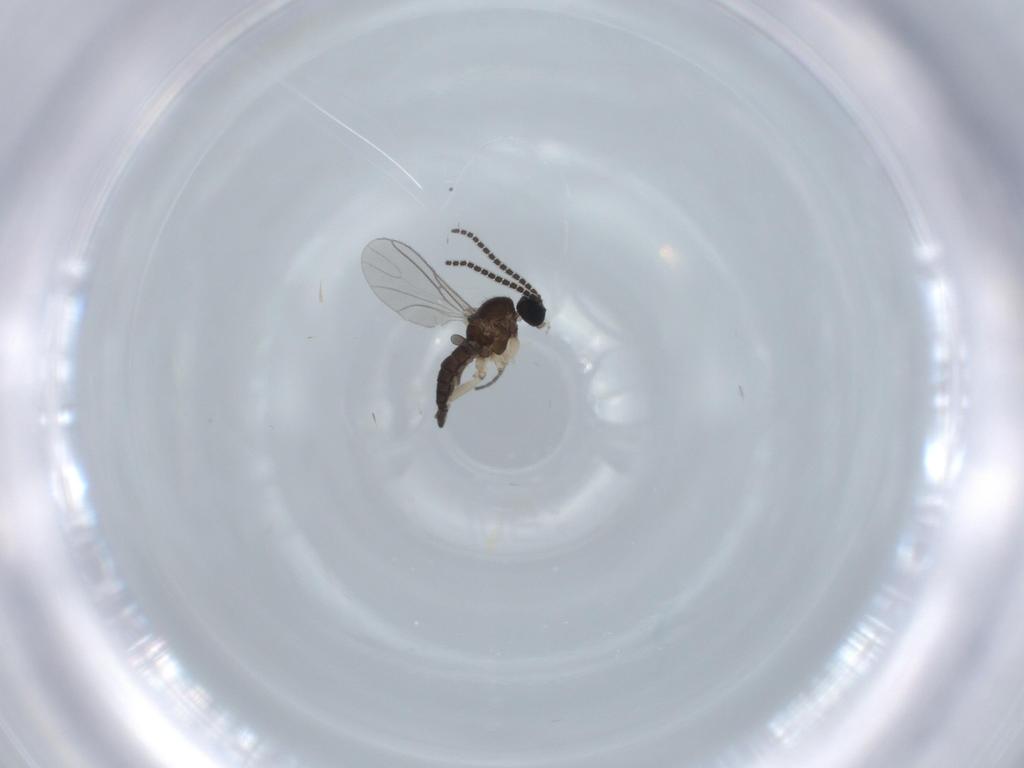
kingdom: Animalia
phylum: Arthropoda
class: Insecta
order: Diptera
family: Sciaridae
